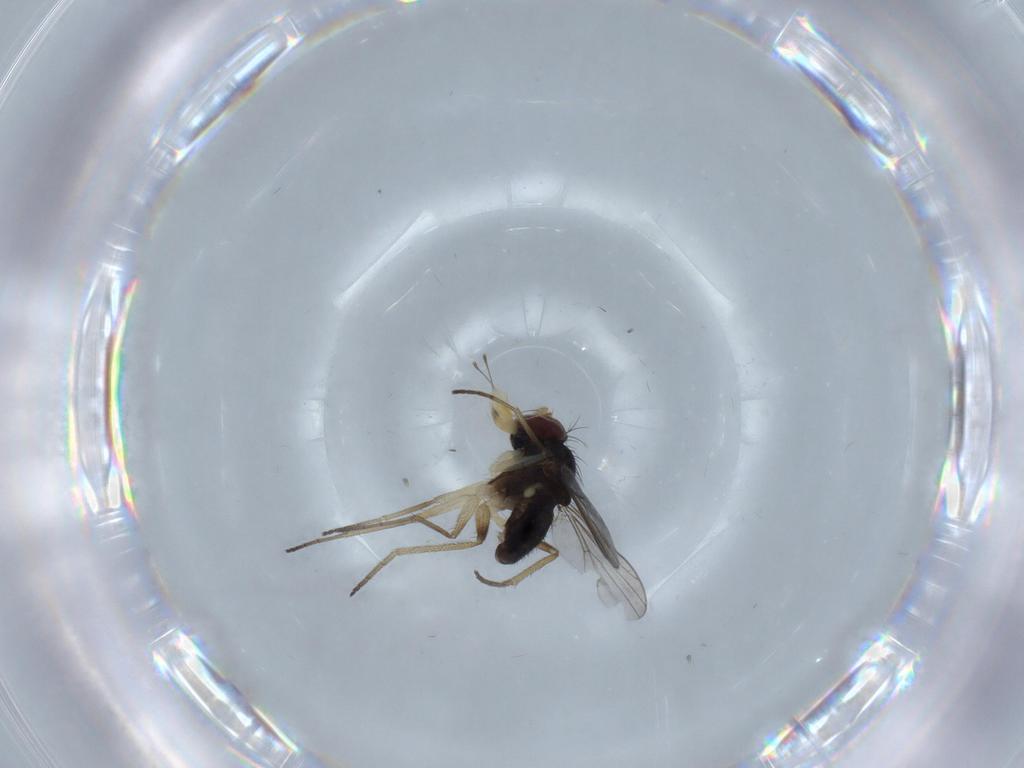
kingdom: Animalia
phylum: Arthropoda
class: Insecta
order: Diptera
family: Dolichopodidae
